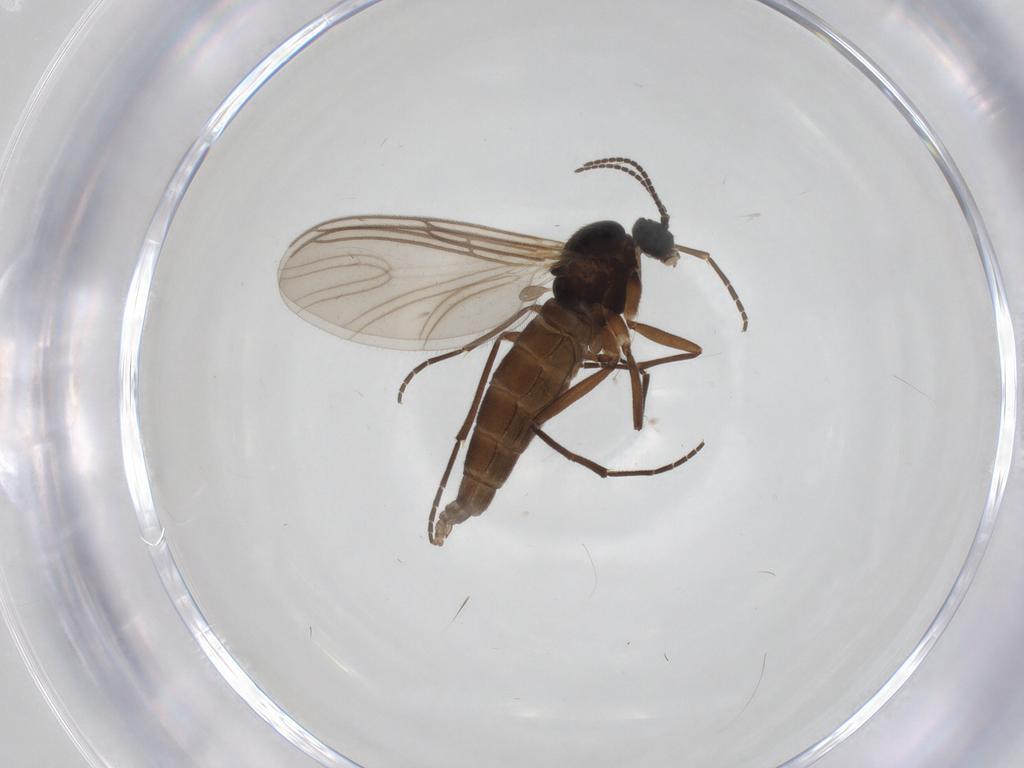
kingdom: Animalia
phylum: Arthropoda
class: Insecta
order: Diptera
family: Sciaridae
